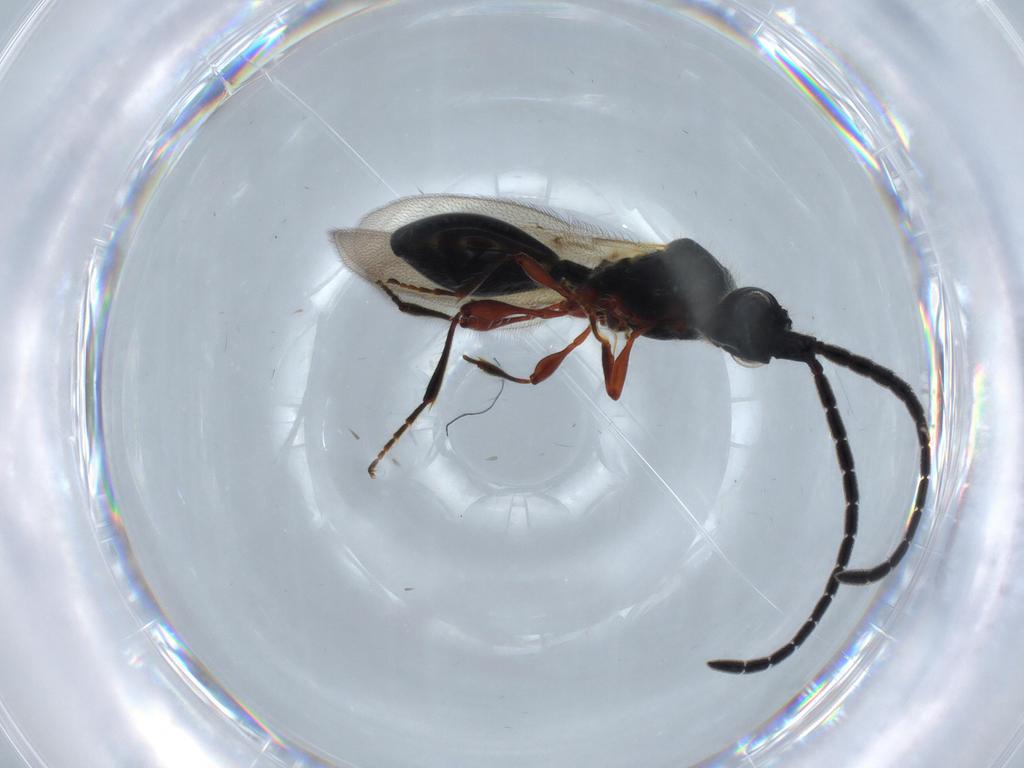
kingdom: Animalia
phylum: Arthropoda
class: Insecta
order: Hymenoptera
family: Diapriidae
